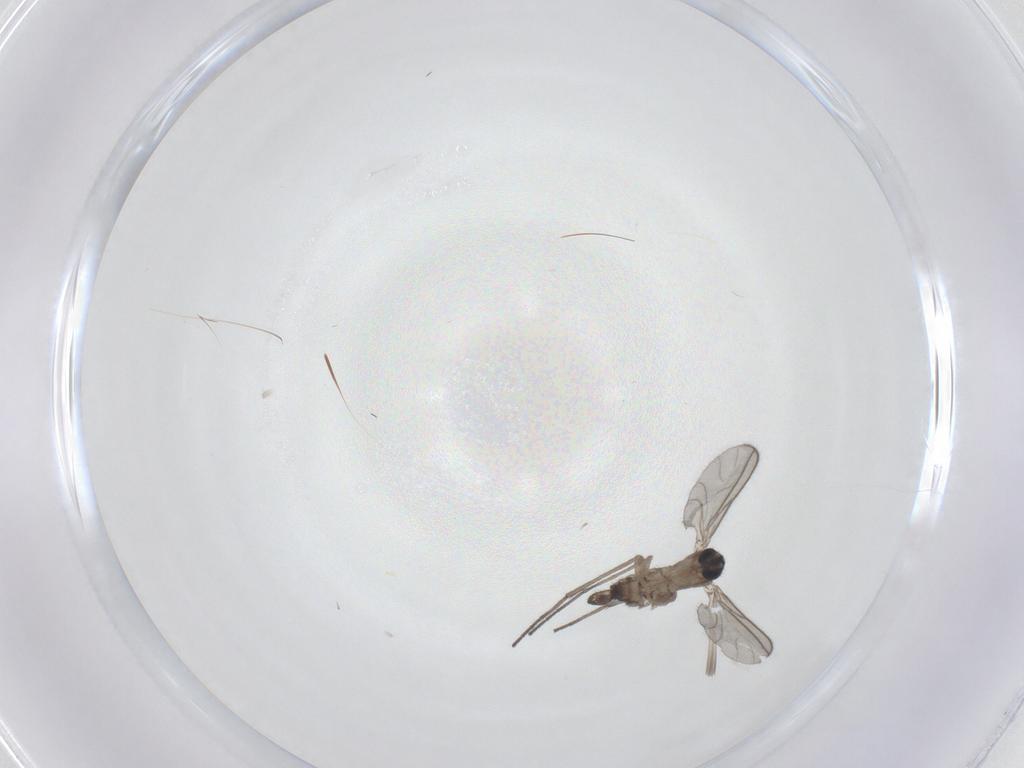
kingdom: Animalia
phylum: Arthropoda
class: Insecta
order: Diptera
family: Sciaridae
